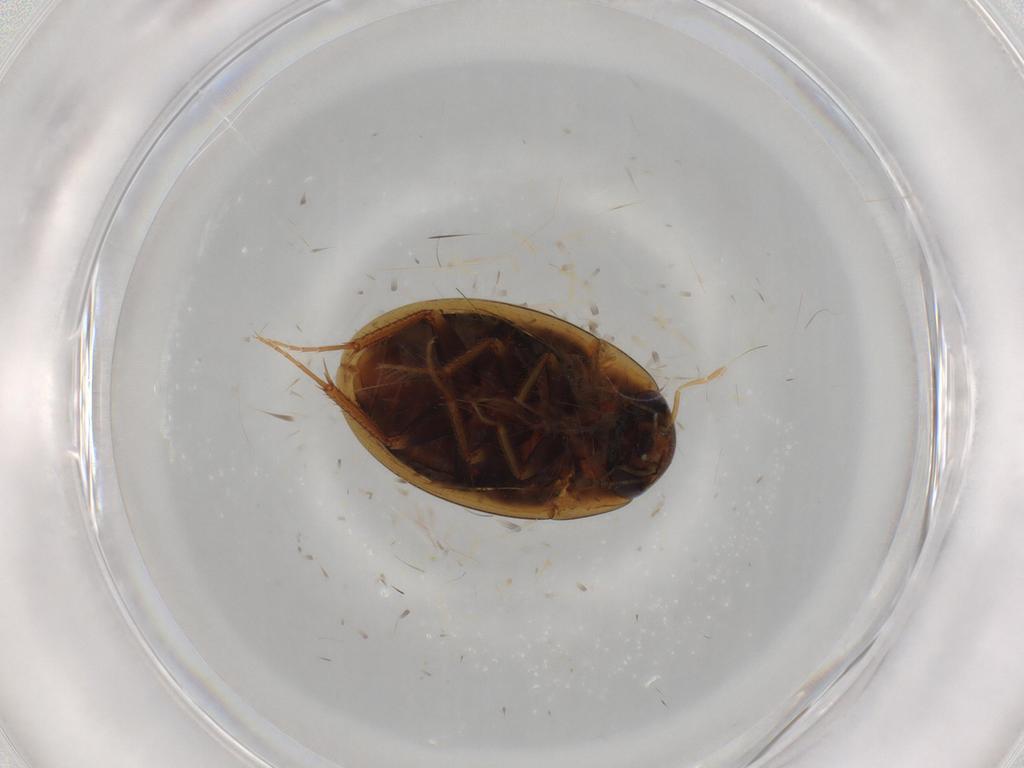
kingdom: Animalia
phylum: Arthropoda
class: Insecta
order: Coleoptera
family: Hydrophilidae
